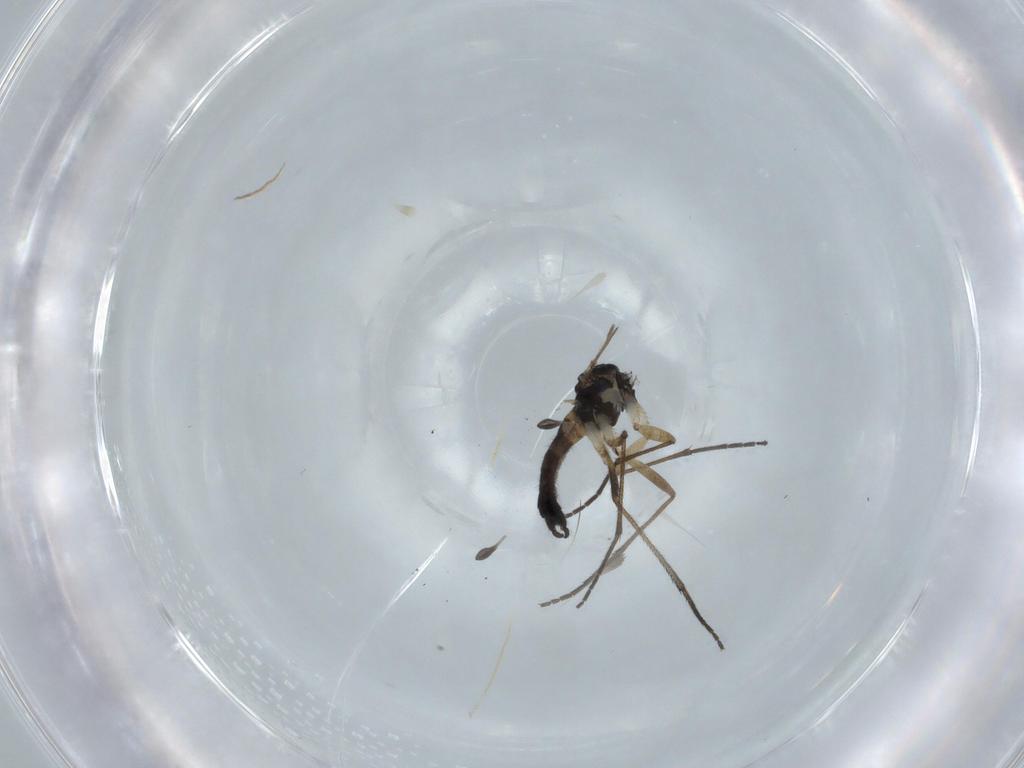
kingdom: Animalia
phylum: Arthropoda
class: Insecta
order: Diptera
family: Sciaridae
